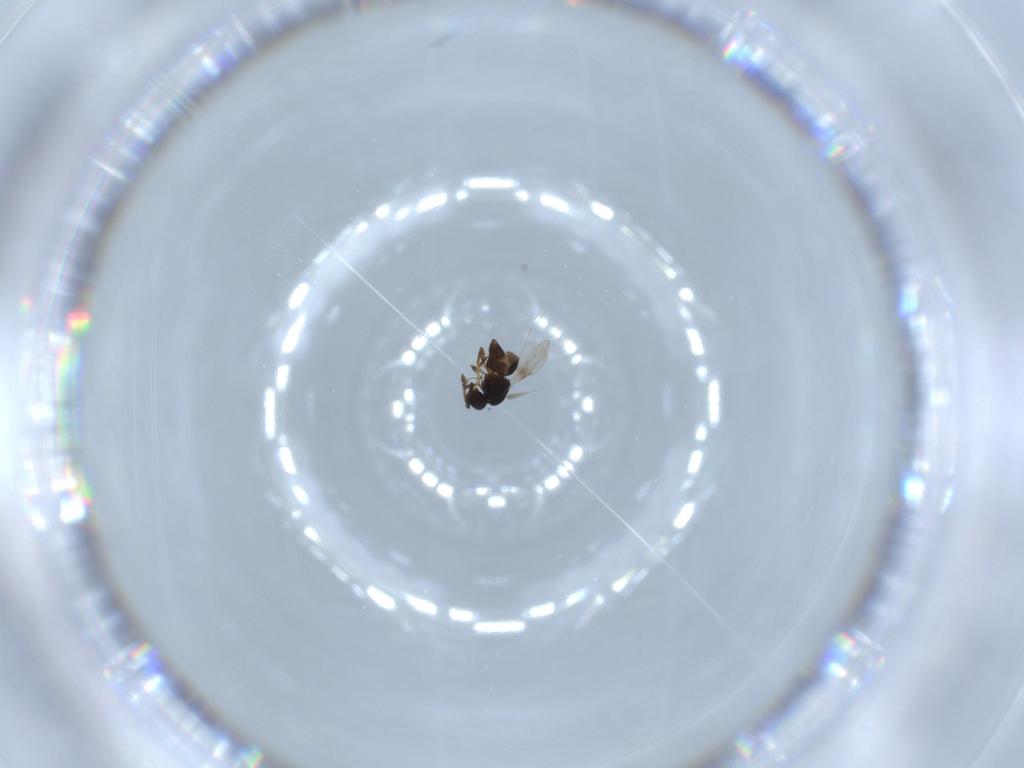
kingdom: Animalia
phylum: Arthropoda
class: Insecta
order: Hymenoptera
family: Ceraphronidae
